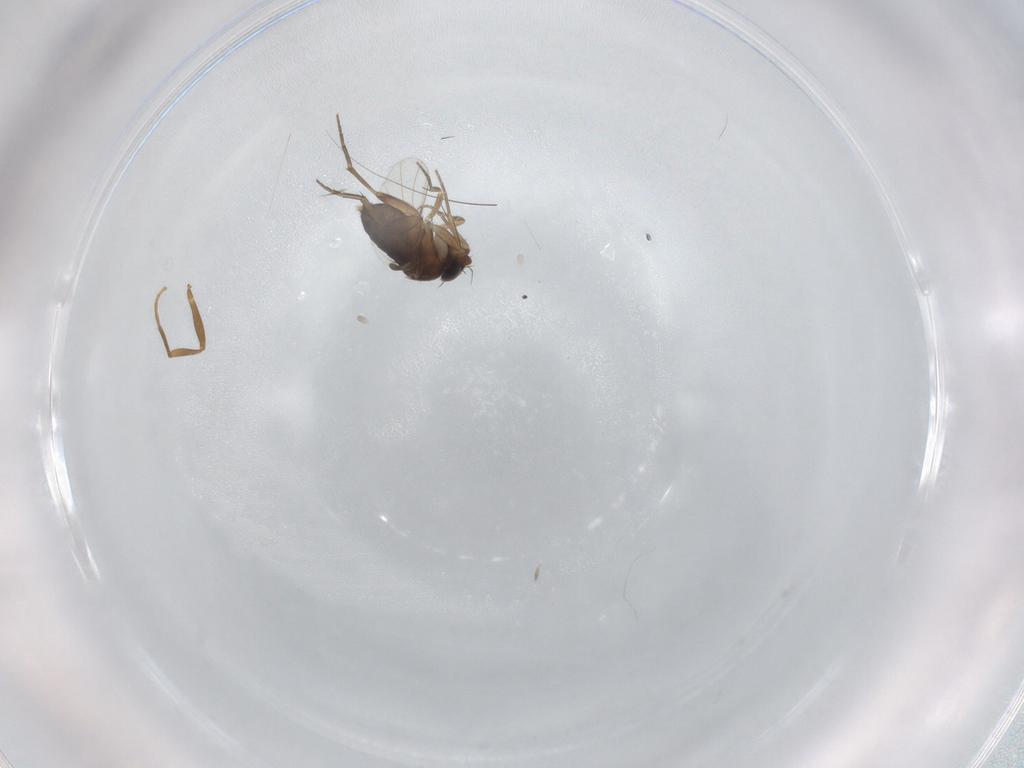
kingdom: Animalia
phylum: Arthropoda
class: Insecta
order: Diptera
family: Phoridae
